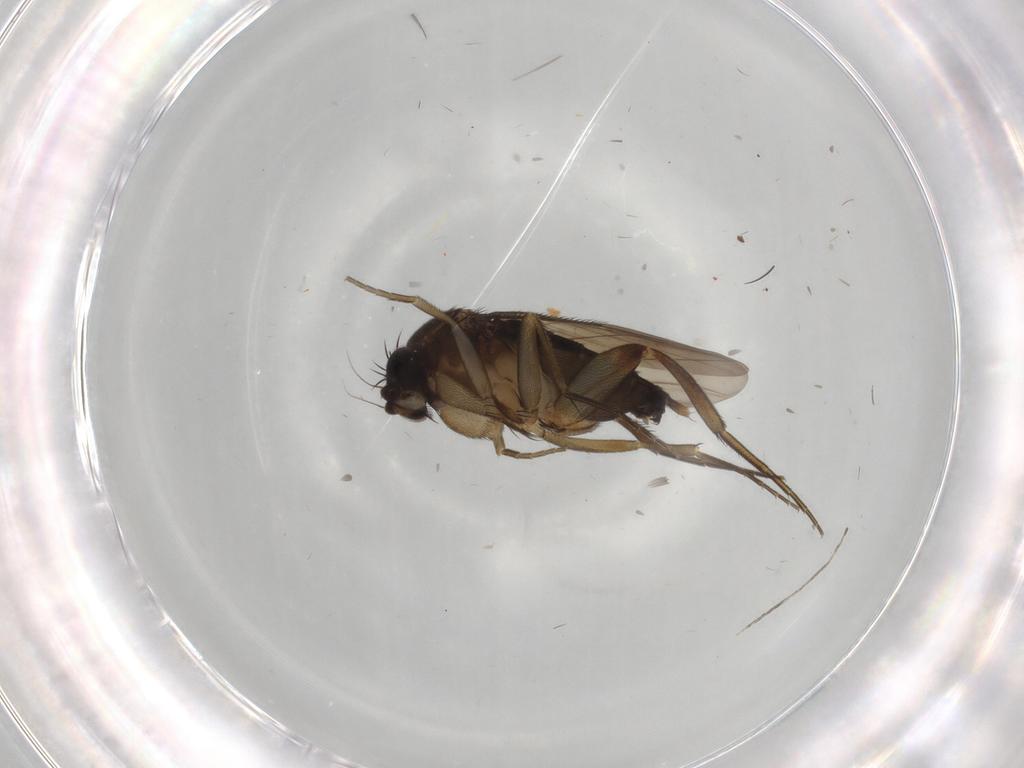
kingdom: Animalia
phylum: Arthropoda
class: Insecta
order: Diptera
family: Phoridae
